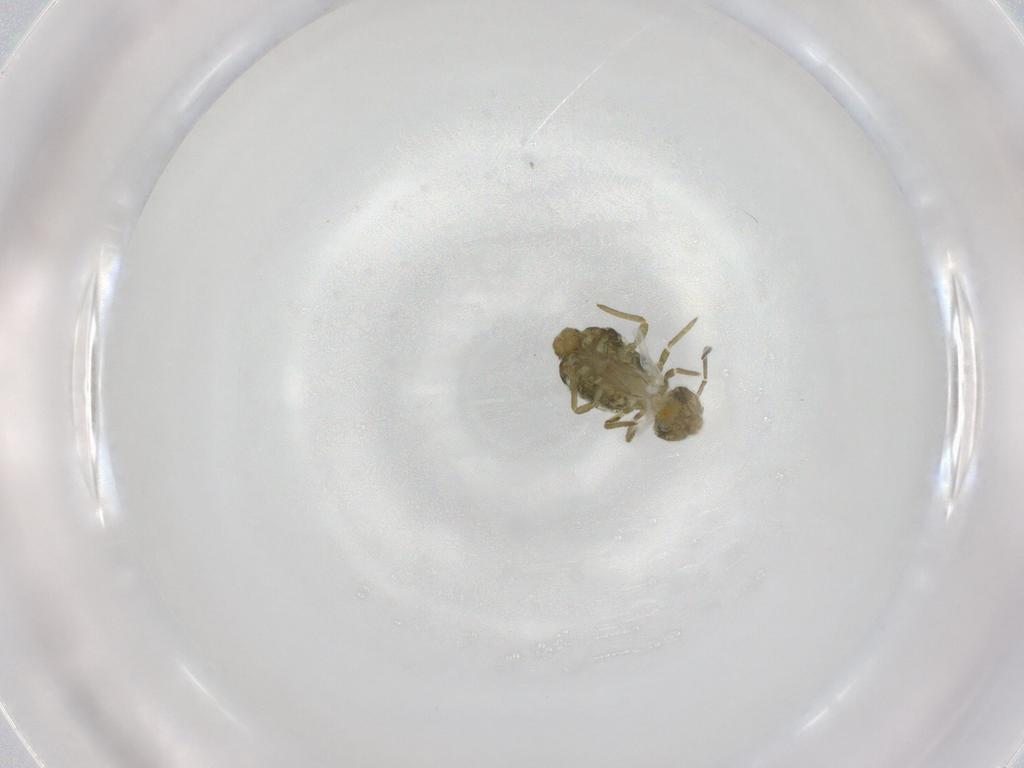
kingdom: Animalia
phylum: Arthropoda
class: Collembola
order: Symphypleona
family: Sminthuridae
